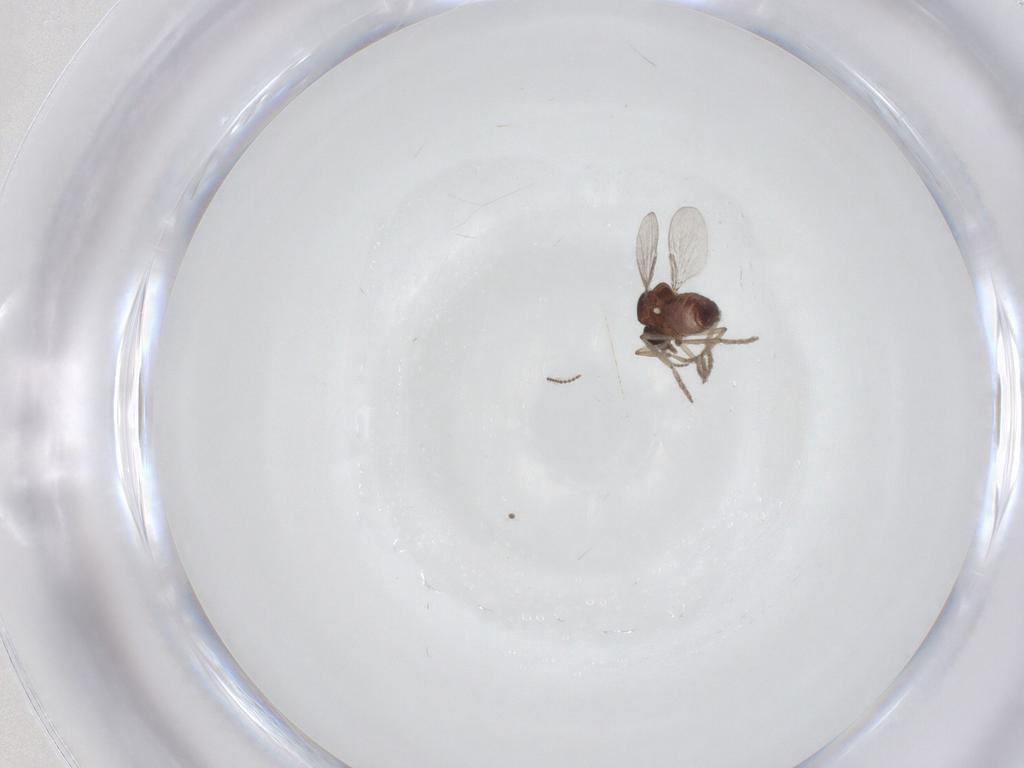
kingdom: Animalia
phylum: Arthropoda
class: Insecta
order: Diptera
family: Ceratopogonidae
